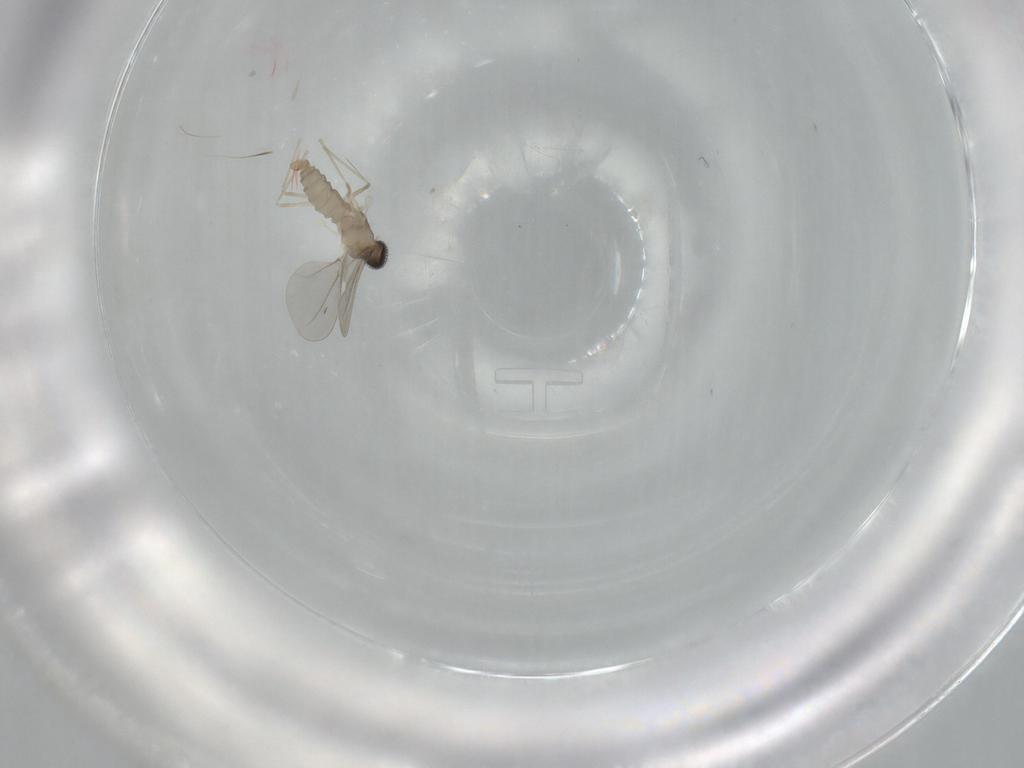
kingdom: Animalia
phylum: Arthropoda
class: Insecta
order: Diptera
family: Cecidomyiidae
